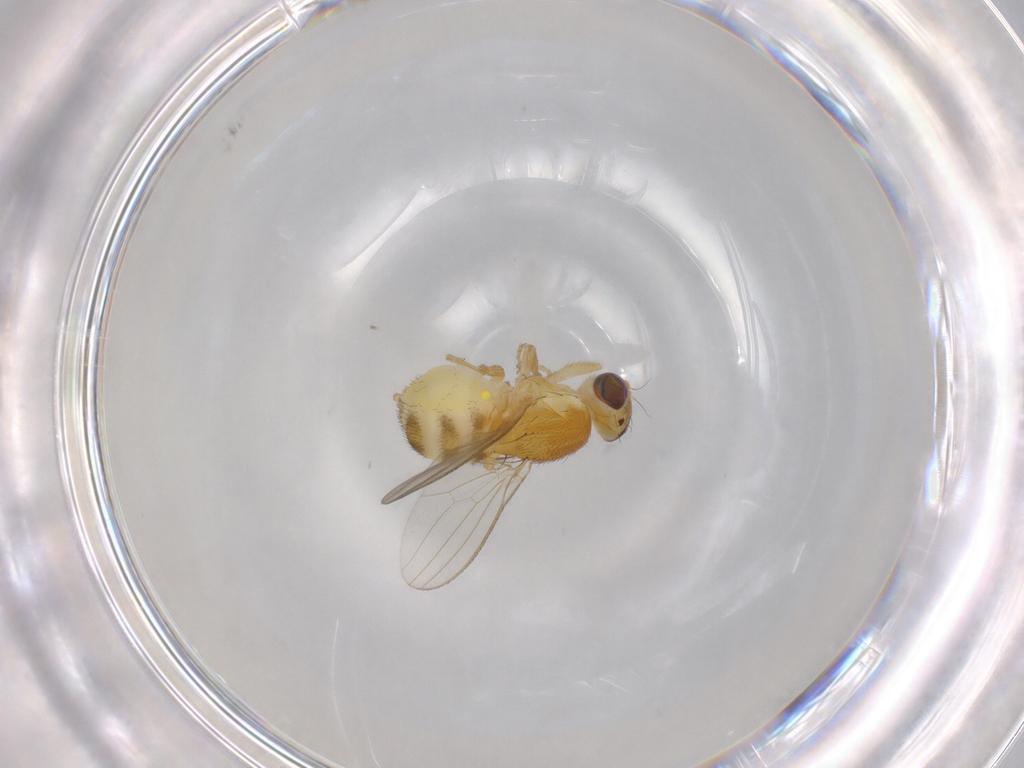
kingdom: Animalia
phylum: Arthropoda
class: Insecta
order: Diptera
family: Chyromyidae
